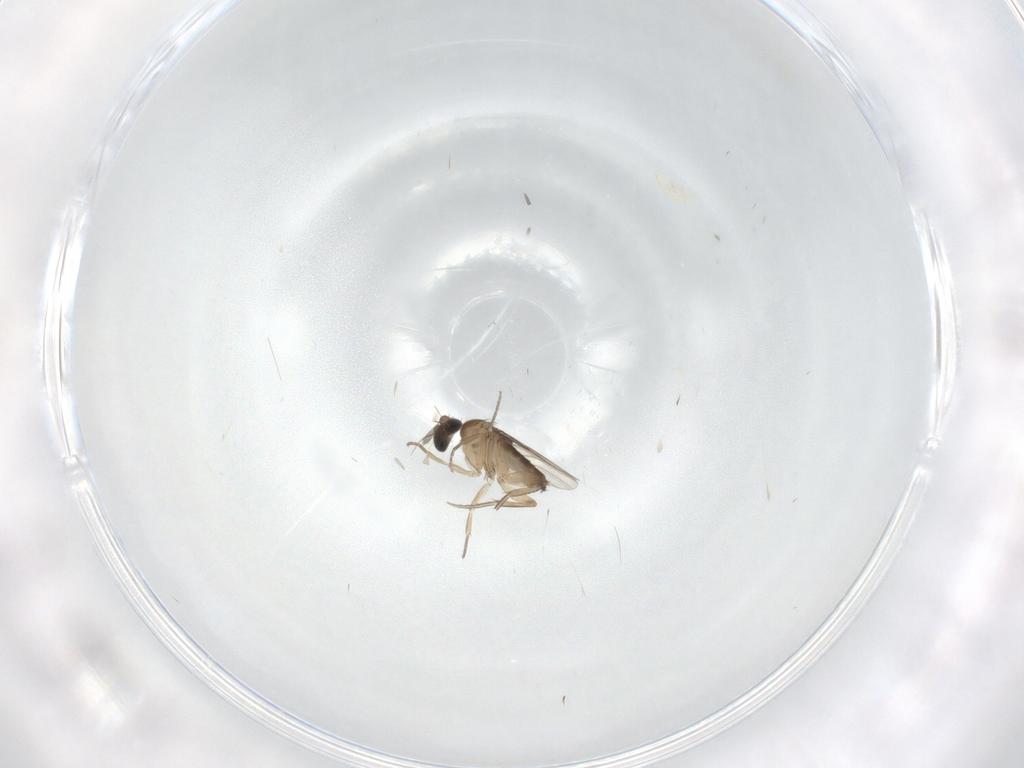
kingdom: Animalia
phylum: Arthropoda
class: Insecta
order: Diptera
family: Phoridae
